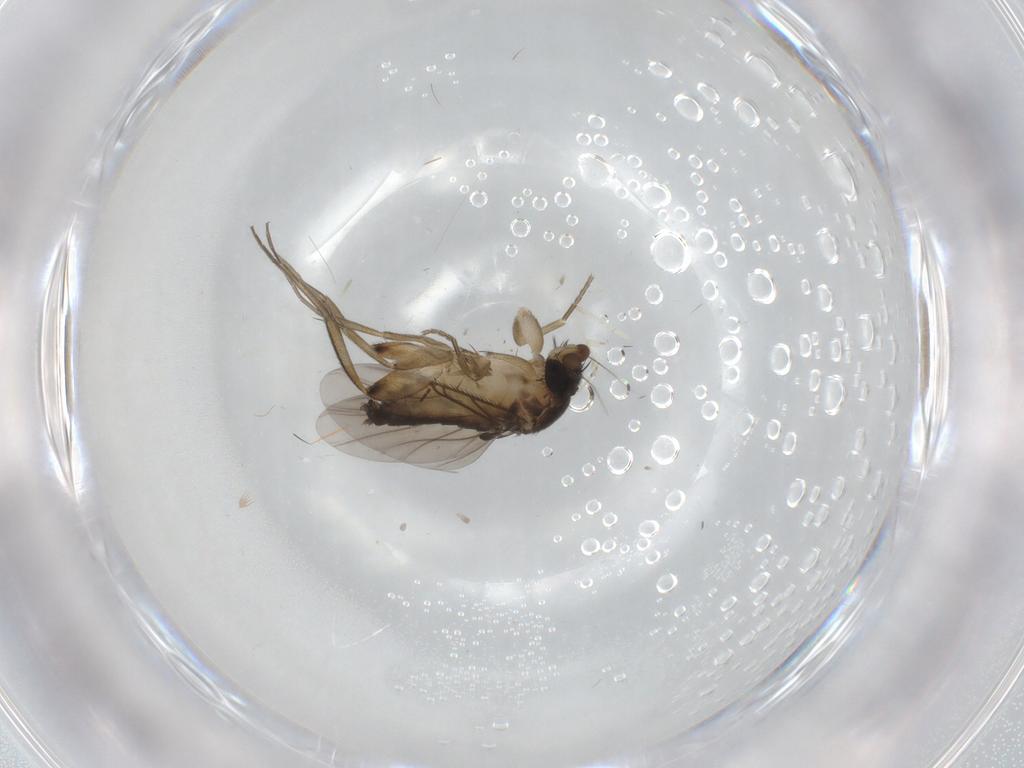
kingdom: Animalia
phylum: Arthropoda
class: Insecta
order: Diptera
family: Phoridae
